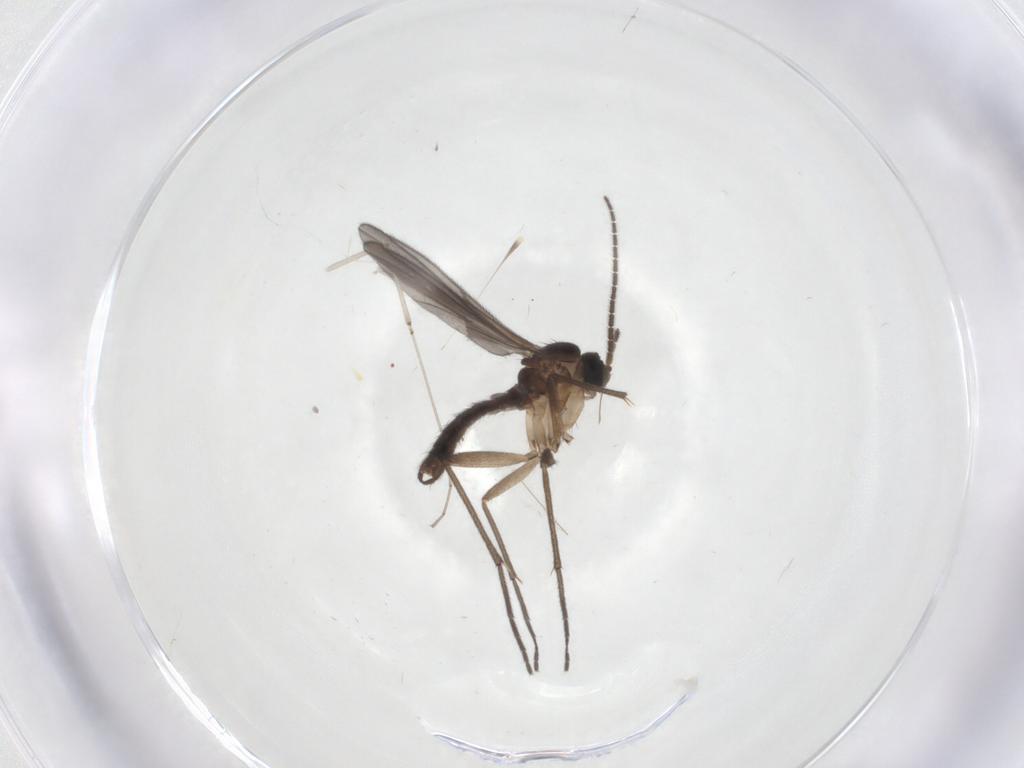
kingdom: Animalia
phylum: Arthropoda
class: Insecta
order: Diptera
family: Sciaridae
